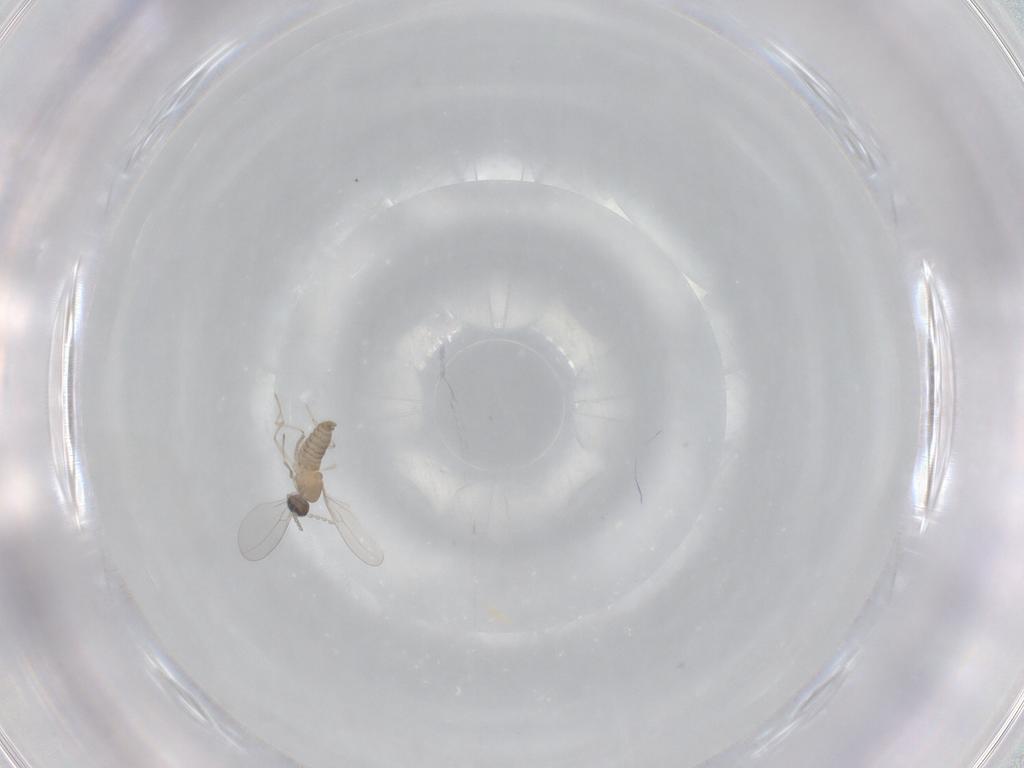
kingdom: Animalia
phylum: Arthropoda
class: Insecta
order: Diptera
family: Cecidomyiidae
